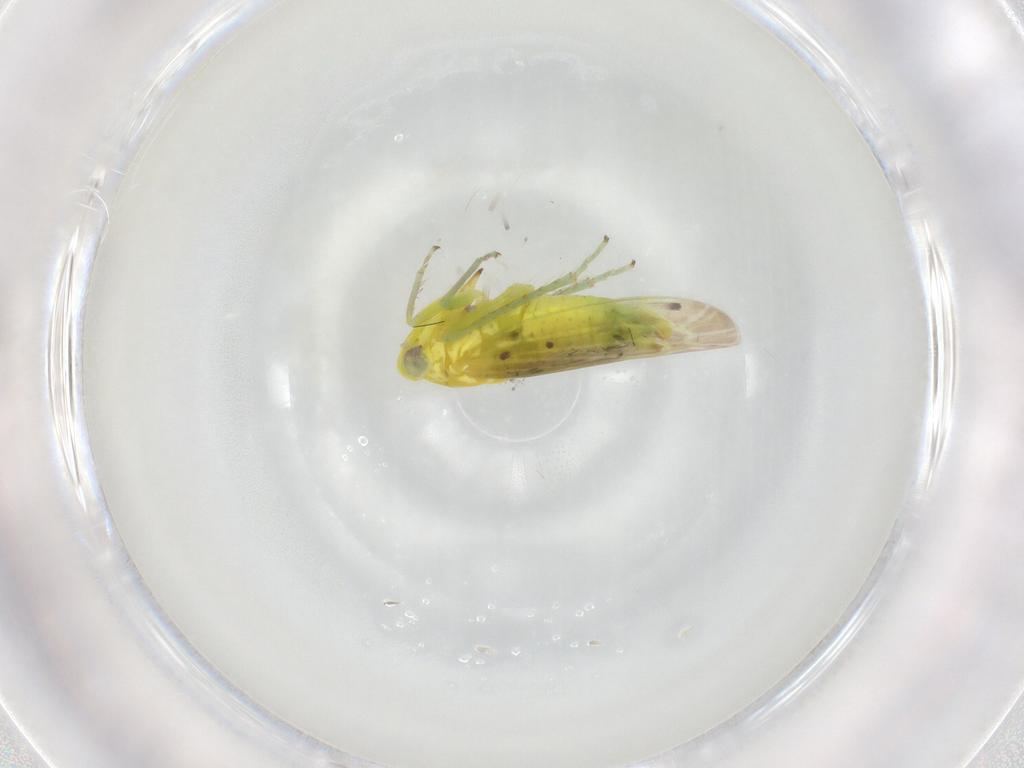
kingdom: Animalia
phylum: Arthropoda
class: Insecta
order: Hemiptera
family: Cicadellidae
